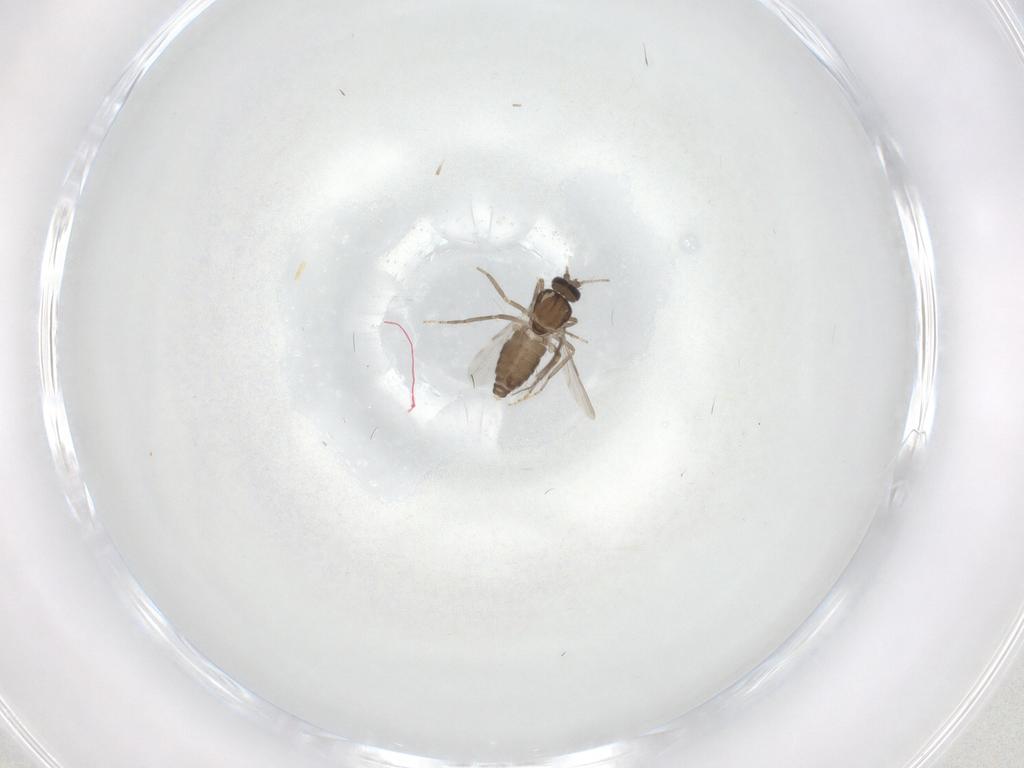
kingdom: Animalia
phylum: Arthropoda
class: Insecta
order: Diptera
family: Ceratopogonidae
